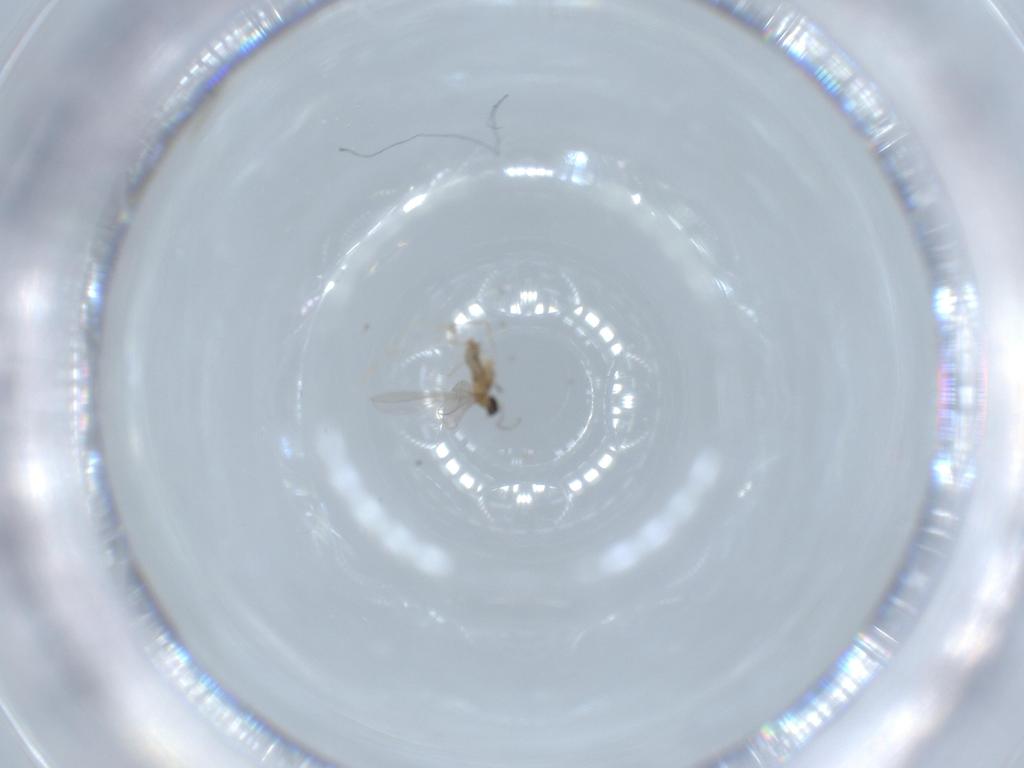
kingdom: Animalia
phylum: Arthropoda
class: Insecta
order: Diptera
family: Cecidomyiidae
